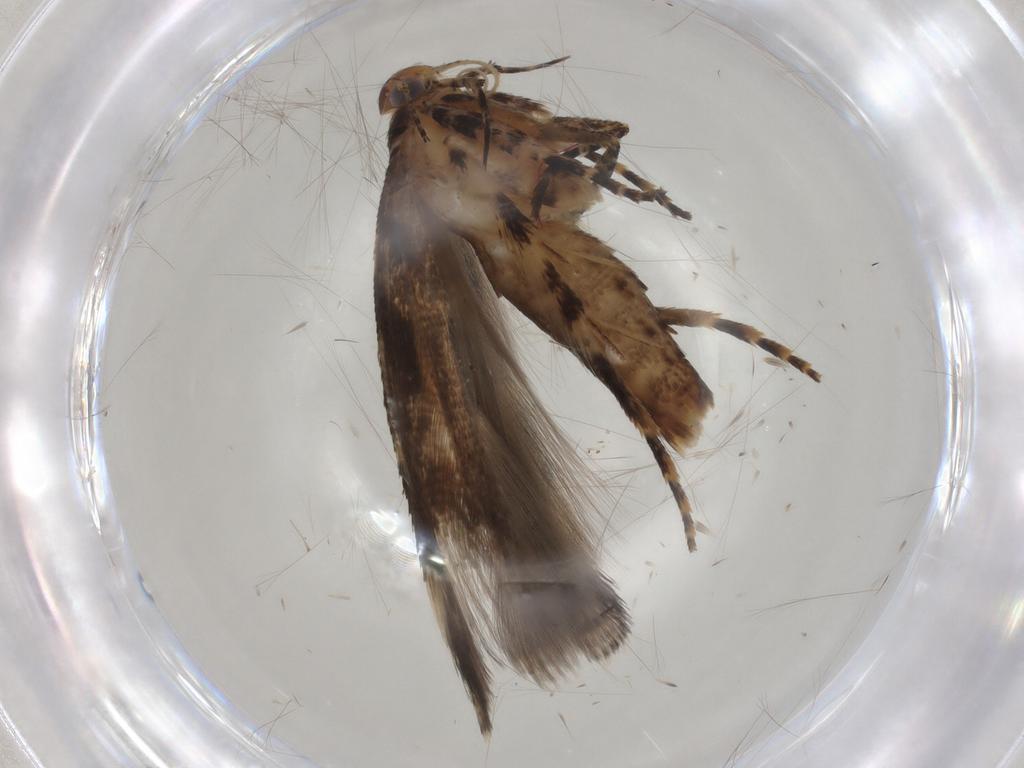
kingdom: Animalia
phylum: Arthropoda
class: Insecta
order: Lepidoptera
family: Gelechiidae
